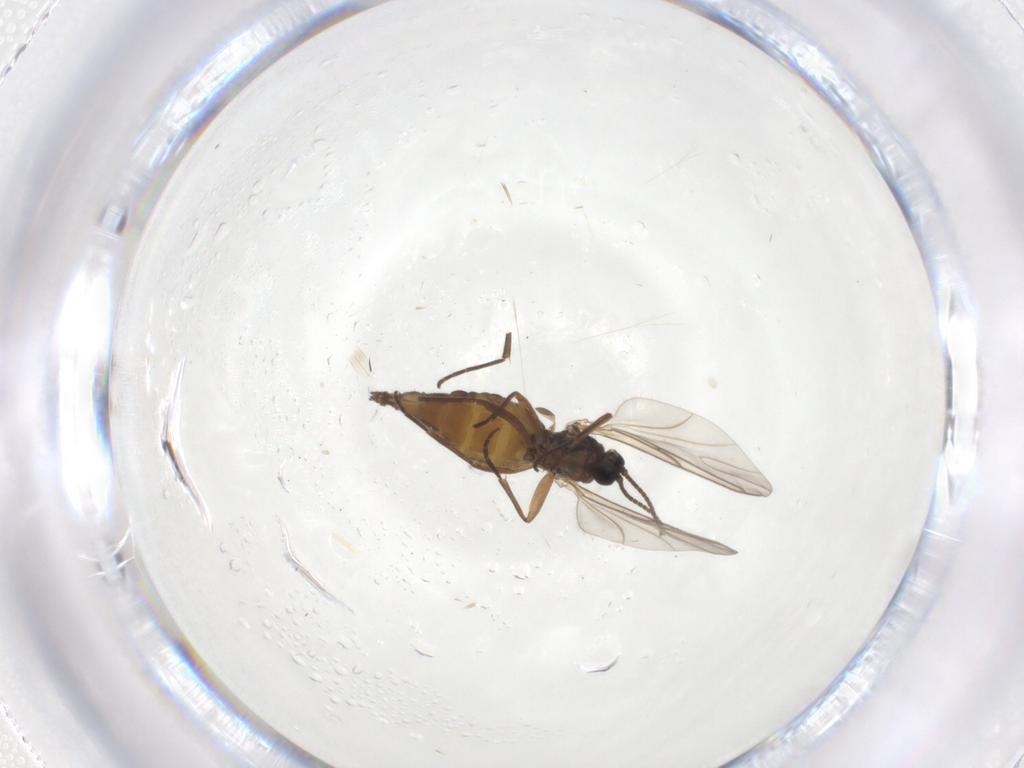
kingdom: Animalia
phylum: Arthropoda
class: Insecta
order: Diptera
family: Sciaridae
